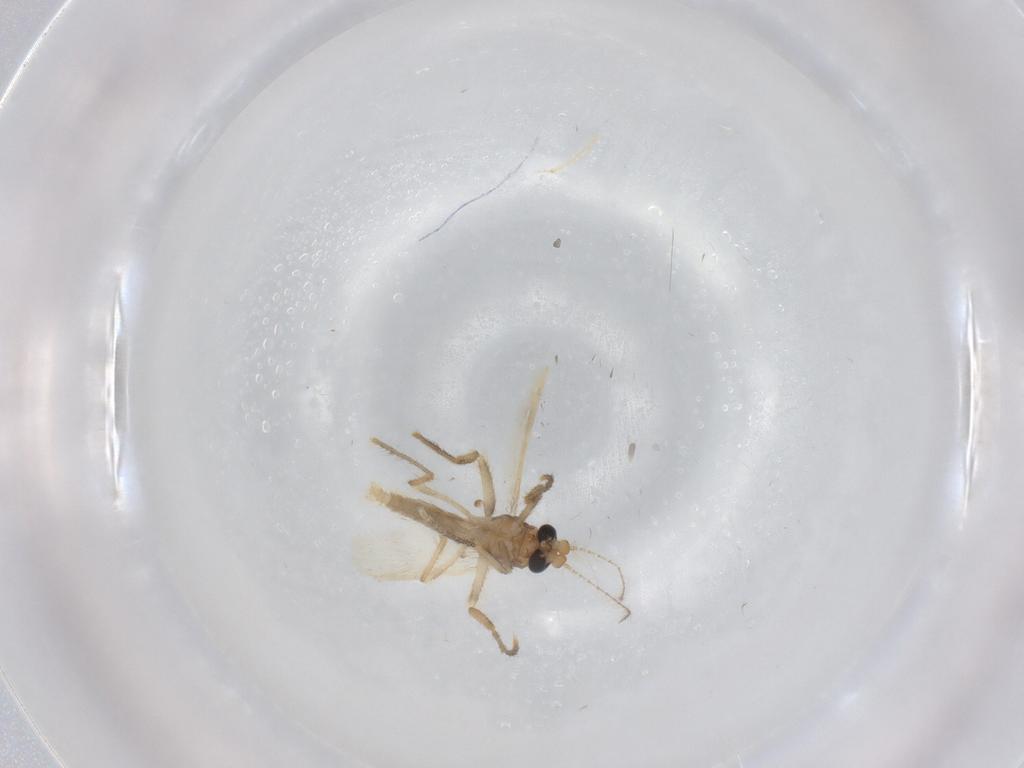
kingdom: Animalia
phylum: Arthropoda
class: Insecta
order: Diptera
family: Corethrellidae
